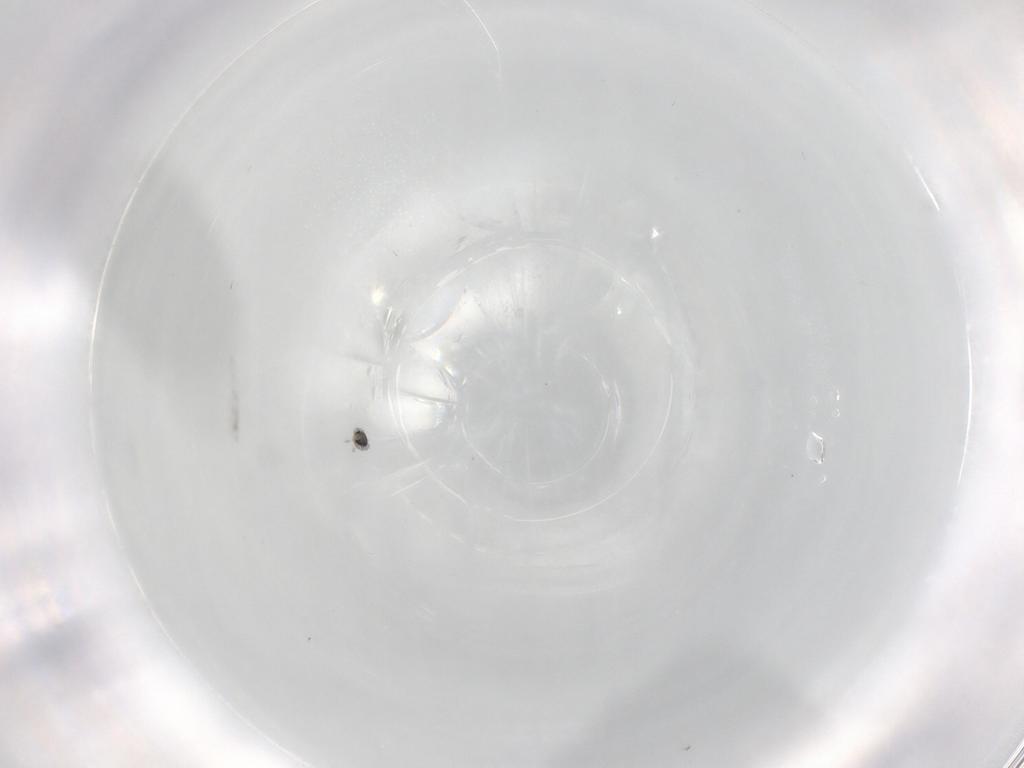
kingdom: Animalia
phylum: Arthropoda
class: Insecta
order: Diptera
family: Cecidomyiidae
